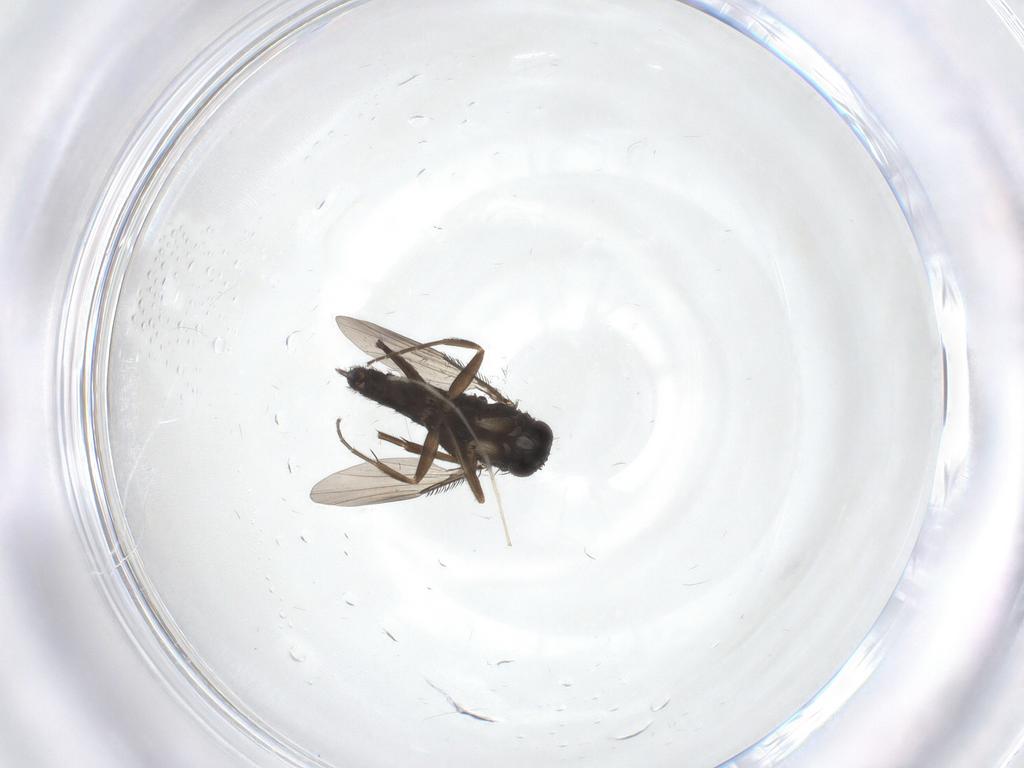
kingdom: Animalia
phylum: Arthropoda
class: Insecta
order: Diptera
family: Phoridae
